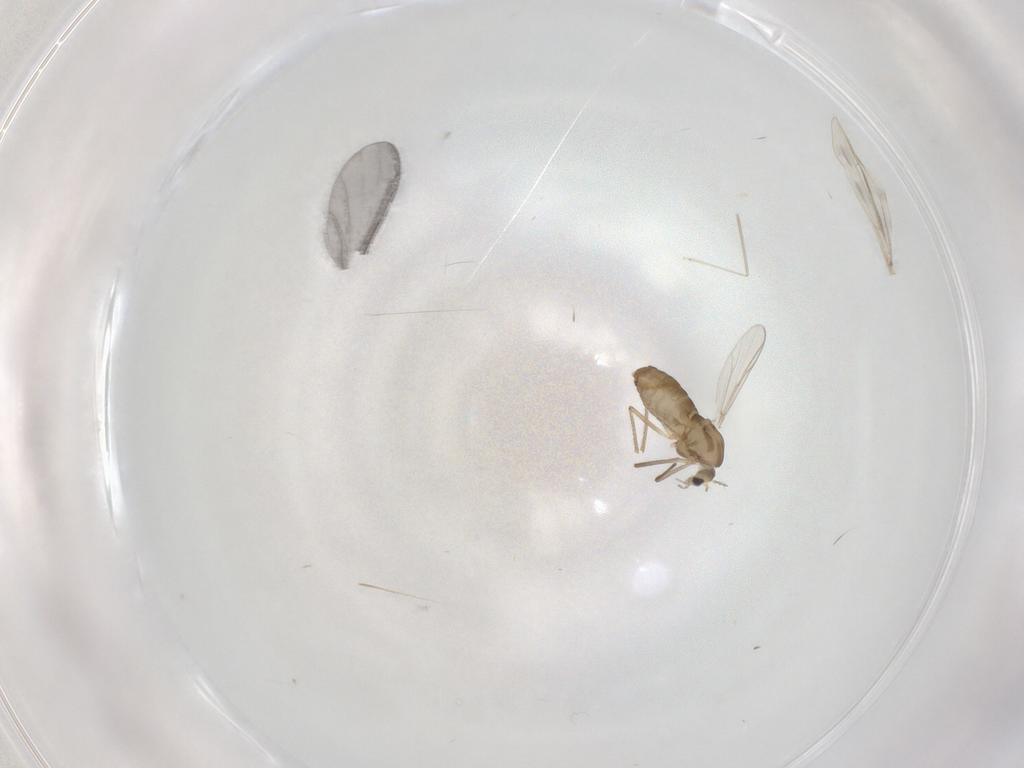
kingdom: Animalia
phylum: Arthropoda
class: Insecta
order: Diptera
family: Chironomidae
